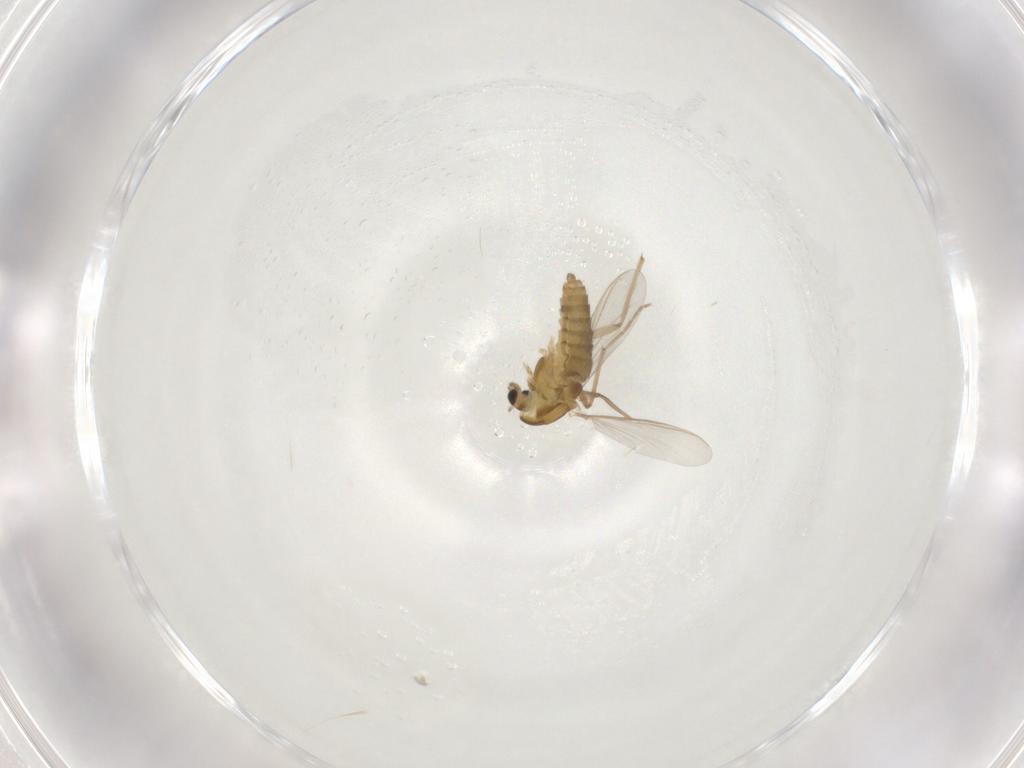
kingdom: Animalia
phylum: Arthropoda
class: Insecta
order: Diptera
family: Chironomidae
